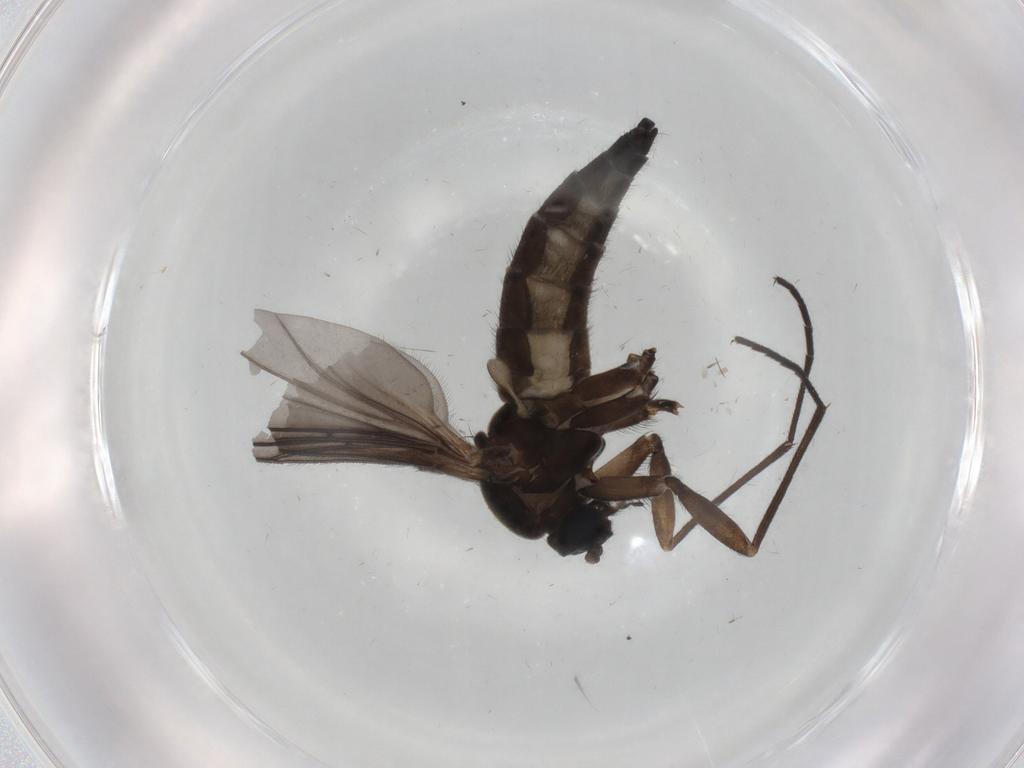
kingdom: Animalia
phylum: Arthropoda
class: Insecta
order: Diptera
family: Sciaridae
